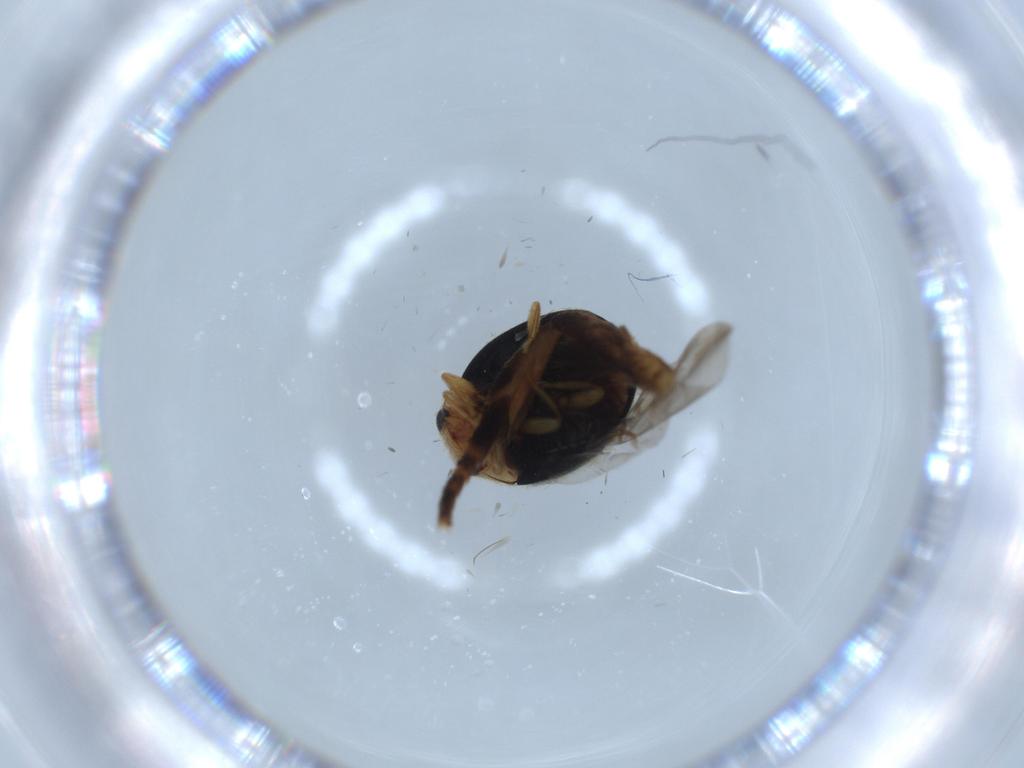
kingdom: Animalia
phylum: Arthropoda
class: Insecta
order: Coleoptera
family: Coccinellidae
